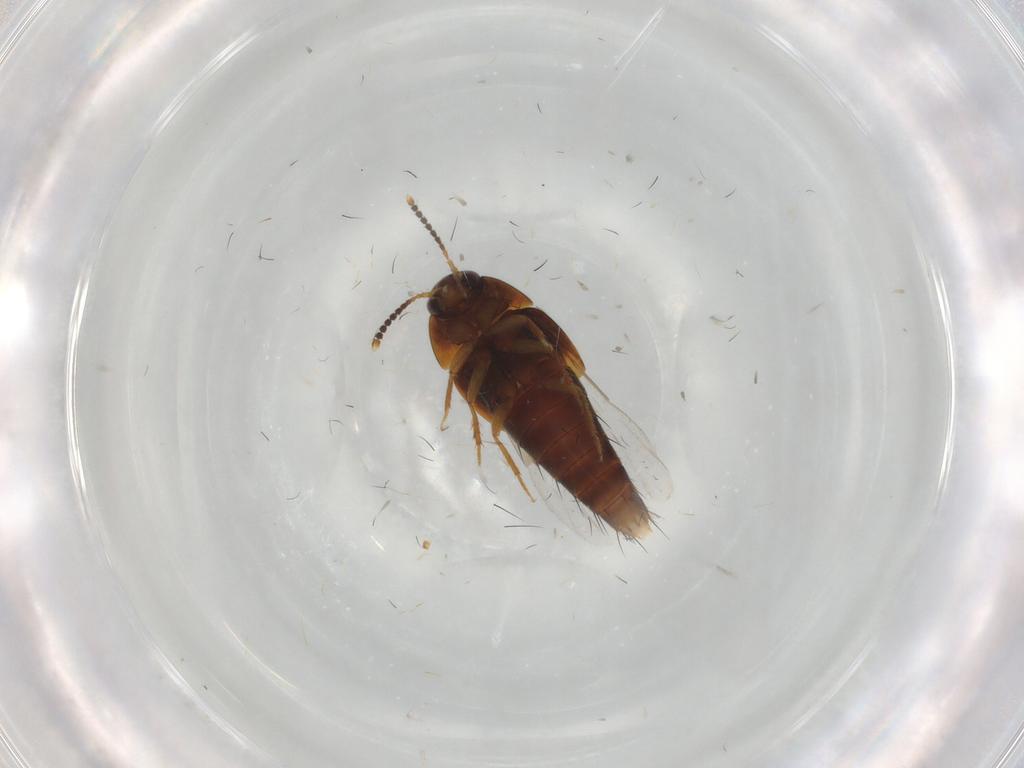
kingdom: Animalia
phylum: Arthropoda
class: Insecta
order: Coleoptera
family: Staphylinidae
